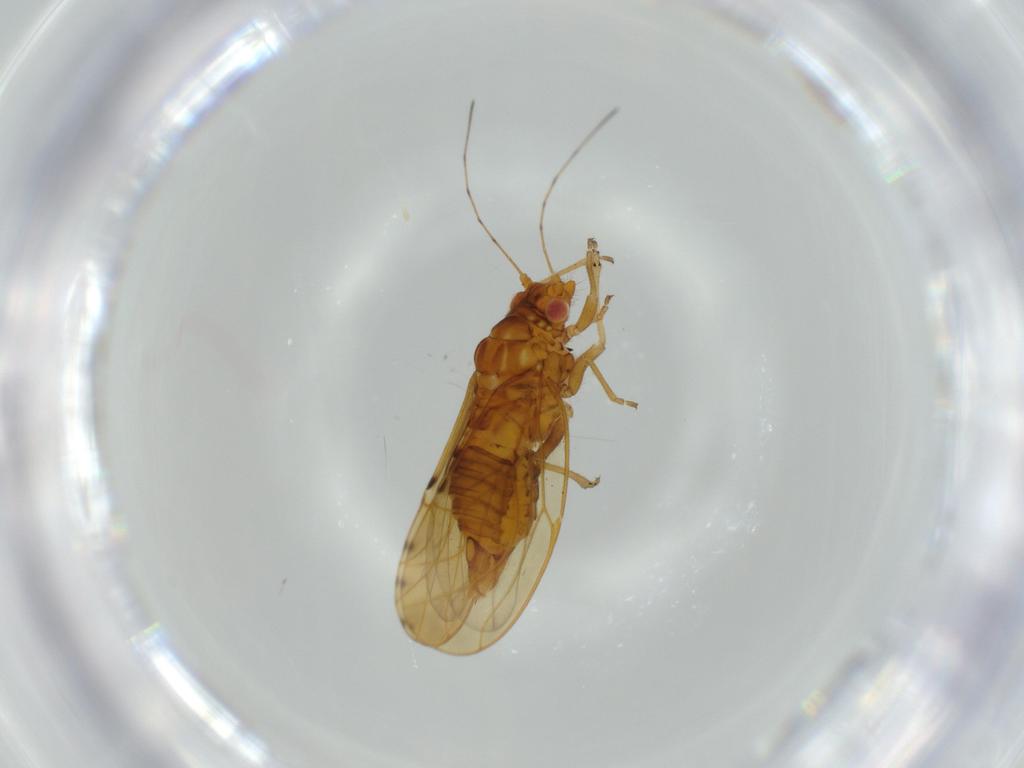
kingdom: Animalia
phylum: Arthropoda
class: Insecta
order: Hemiptera
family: Psylloidea_incertae_sedis
